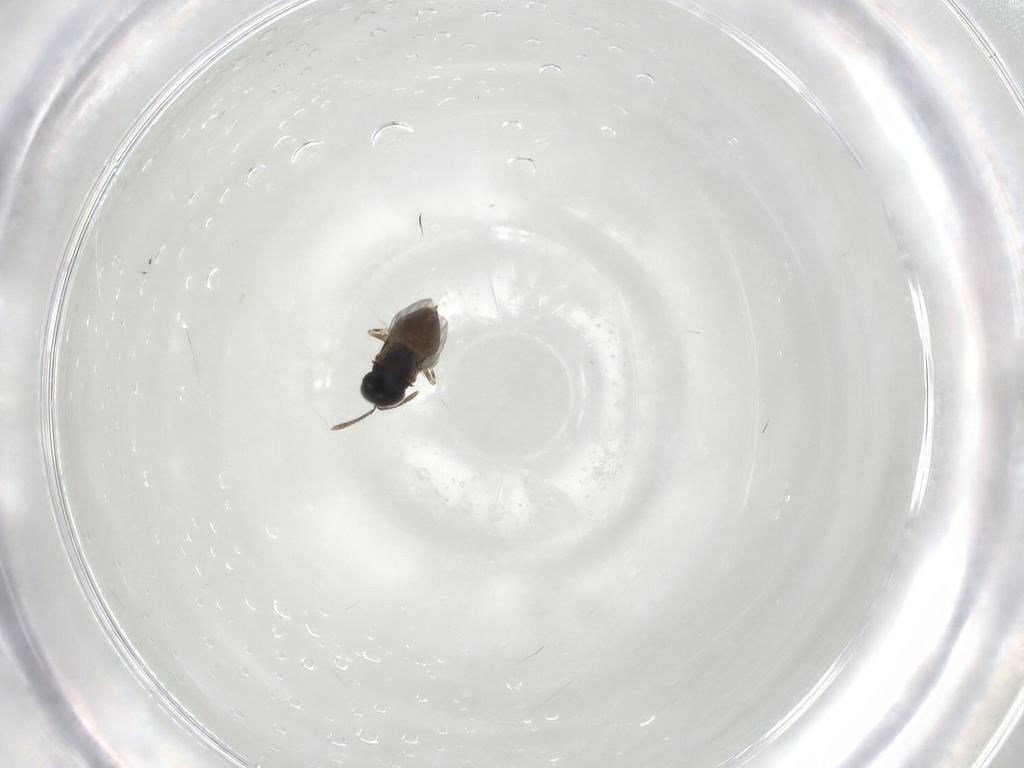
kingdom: Animalia
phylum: Arthropoda
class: Insecta
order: Hymenoptera
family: Encyrtidae
